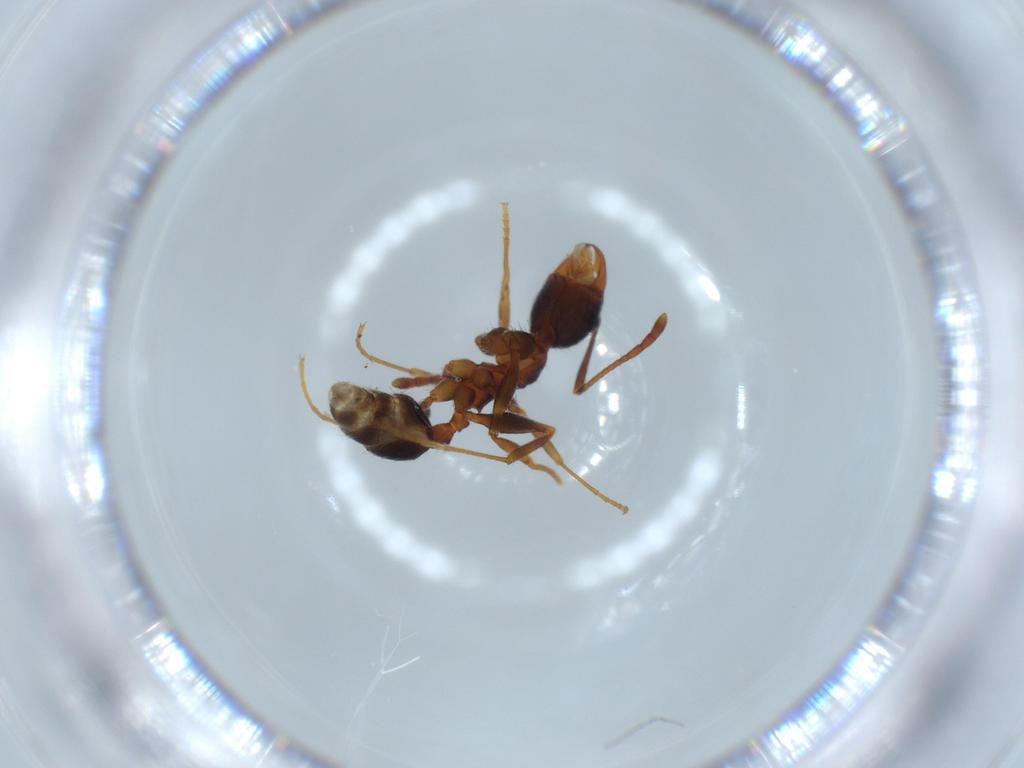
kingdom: Animalia
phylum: Arthropoda
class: Insecta
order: Hymenoptera
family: Formicidae
